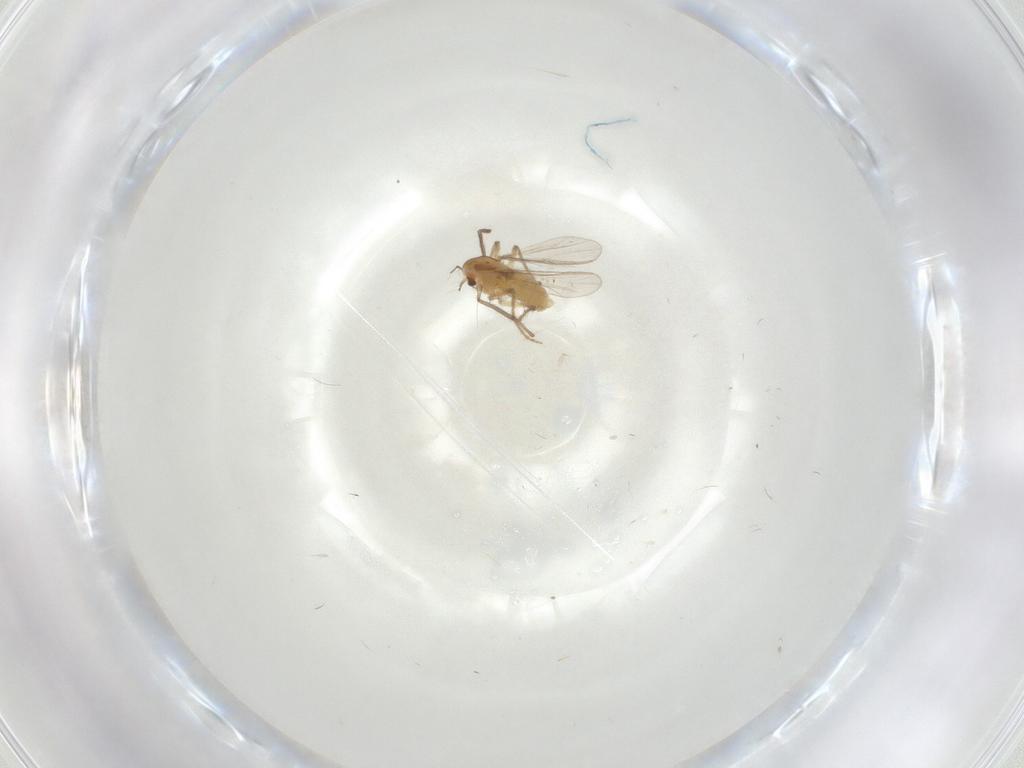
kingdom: Animalia
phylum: Arthropoda
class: Insecta
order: Diptera
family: Chironomidae
